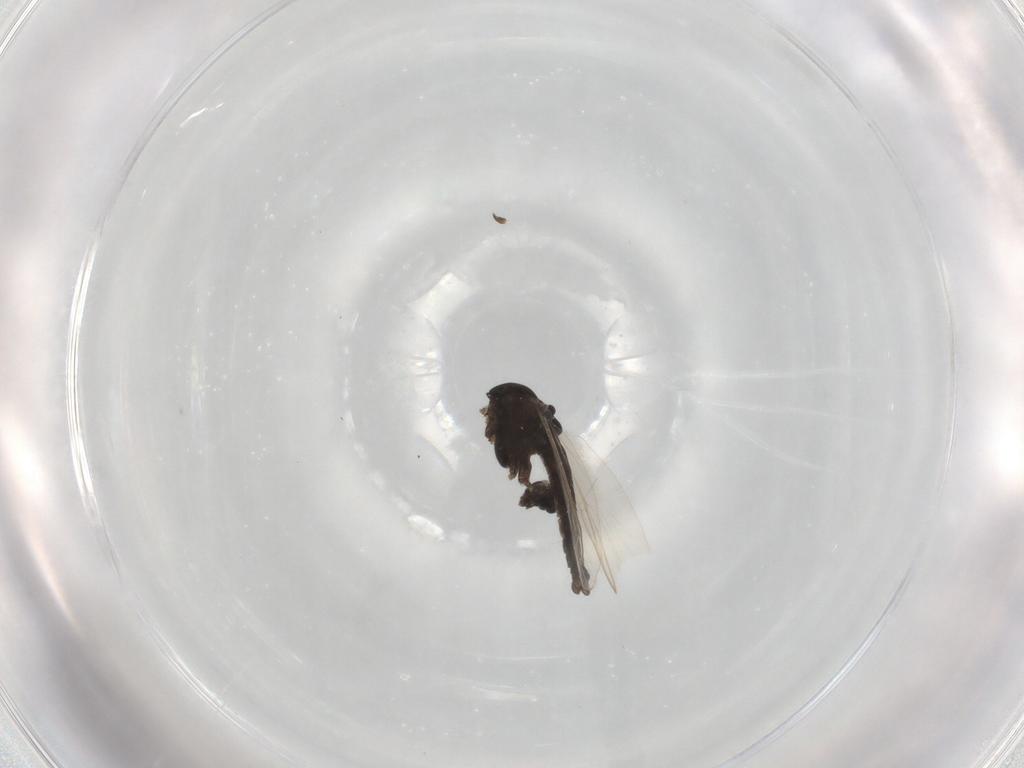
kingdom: Animalia
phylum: Arthropoda
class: Insecta
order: Diptera
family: Chironomidae
